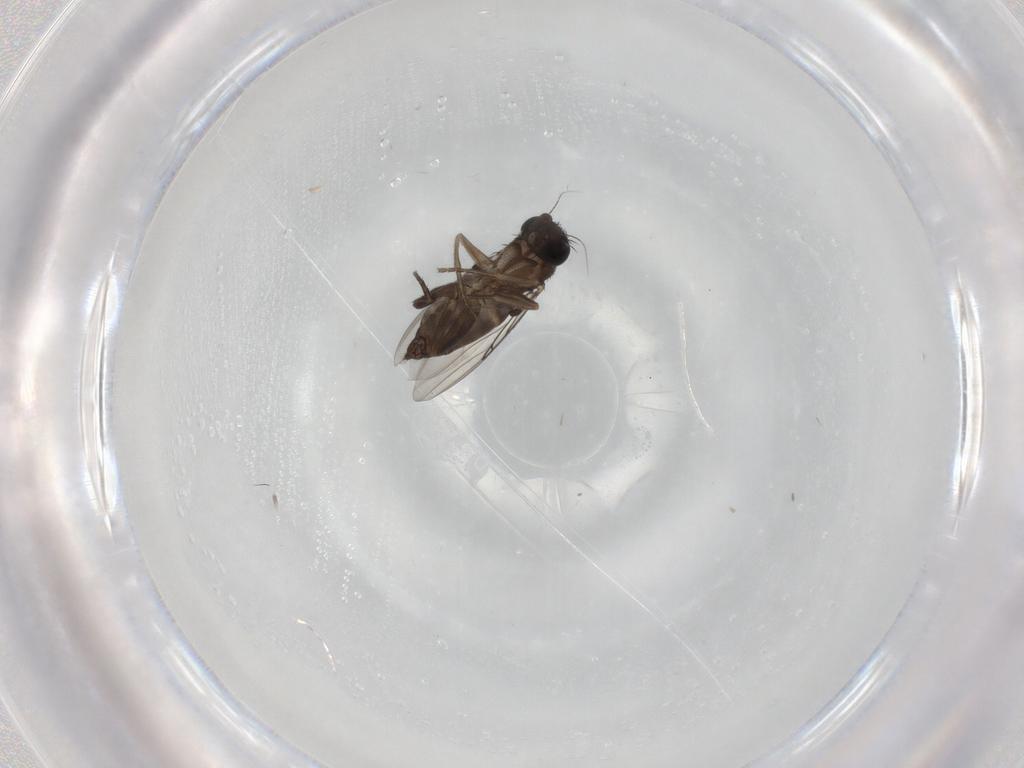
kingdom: Animalia
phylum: Arthropoda
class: Insecta
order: Diptera
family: Phoridae
